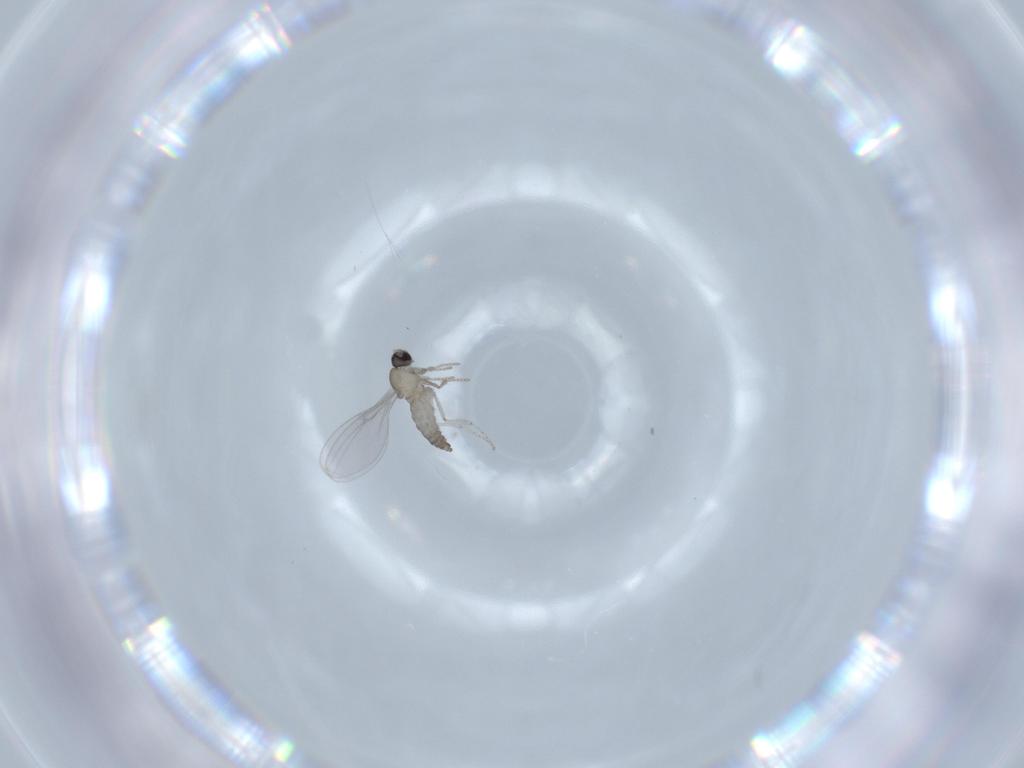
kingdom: Animalia
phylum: Arthropoda
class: Insecta
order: Diptera
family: Cecidomyiidae
